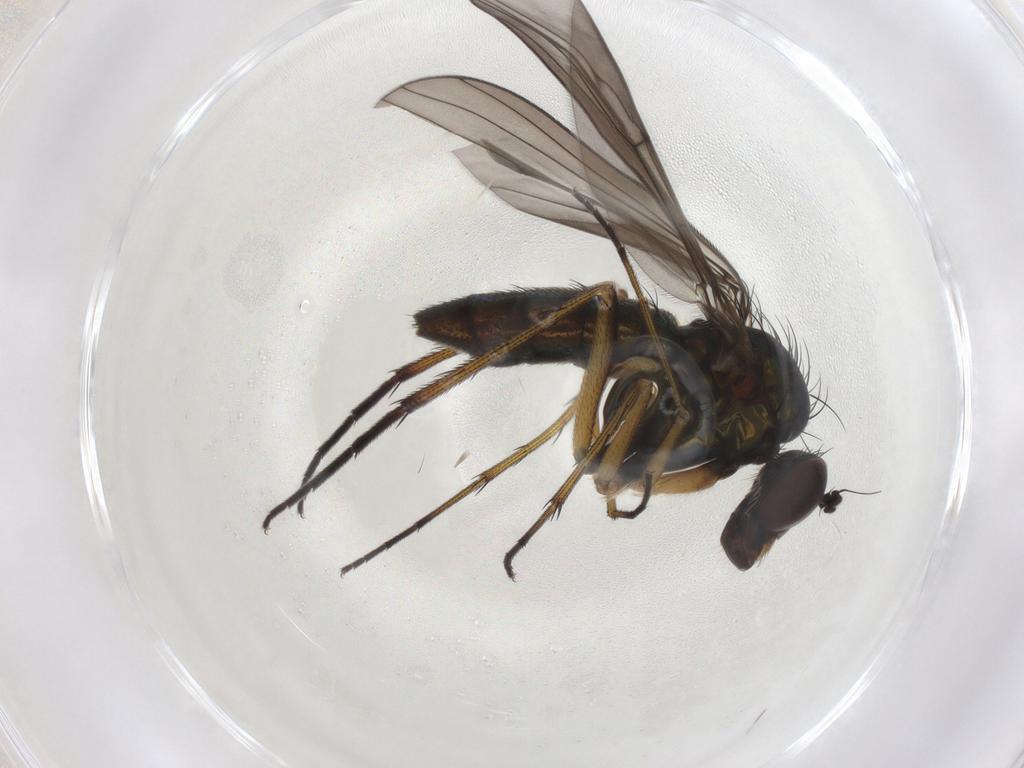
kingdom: Animalia
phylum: Arthropoda
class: Insecta
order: Diptera
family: Dolichopodidae
